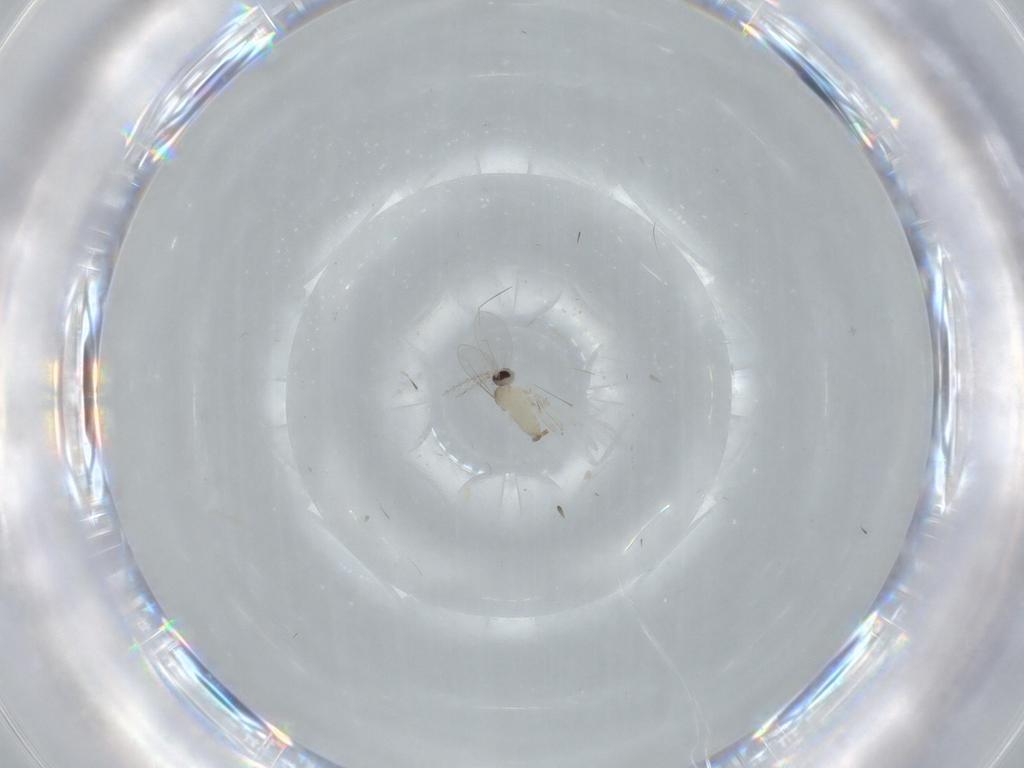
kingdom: Animalia
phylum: Arthropoda
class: Insecta
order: Diptera
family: Cecidomyiidae
